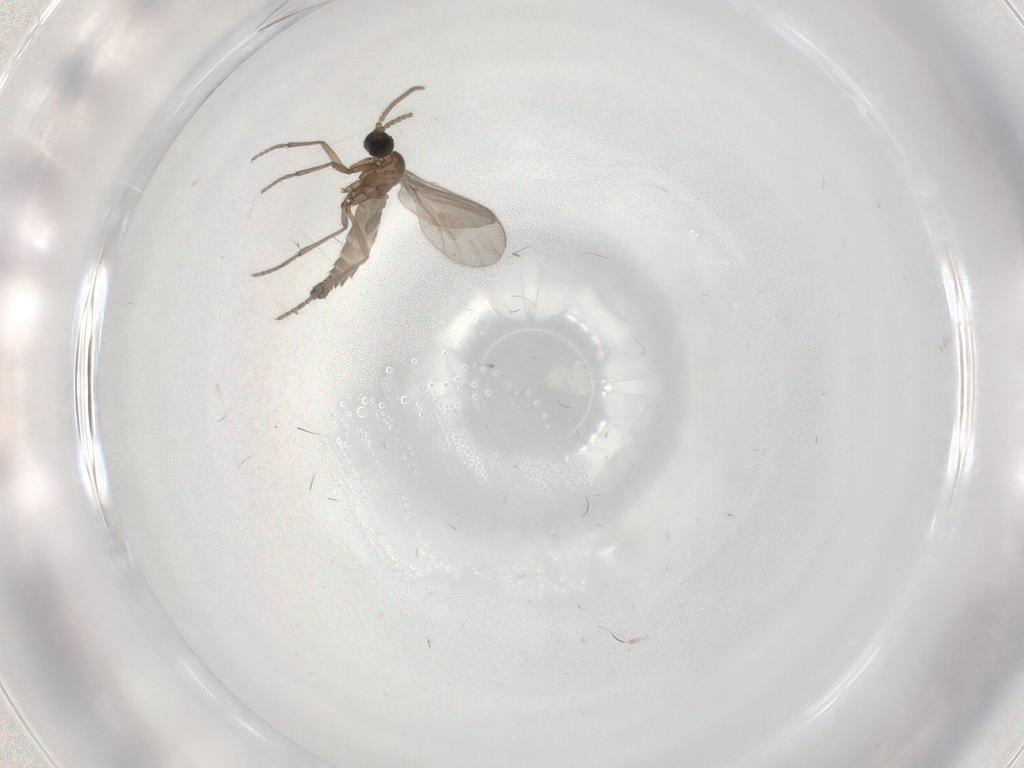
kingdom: Animalia
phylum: Arthropoda
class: Insecta
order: Diptera
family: Sciaridae
